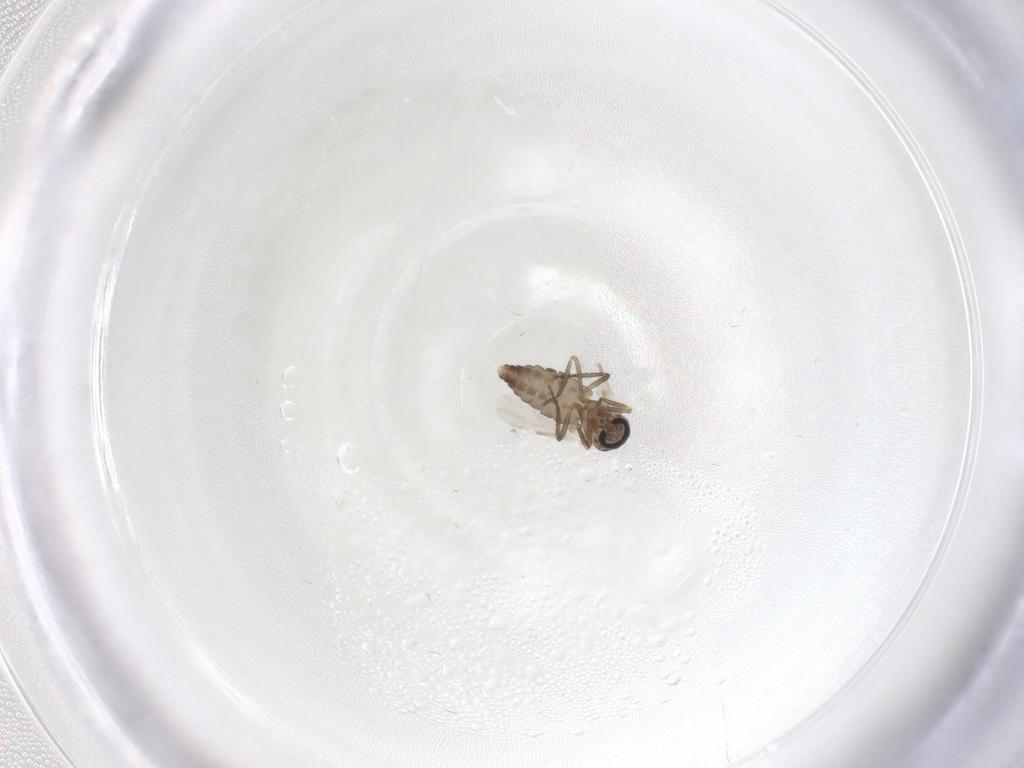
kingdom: Animalia
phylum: Arthropoda
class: Insecta
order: Diptera
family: Ceratopogonidae
